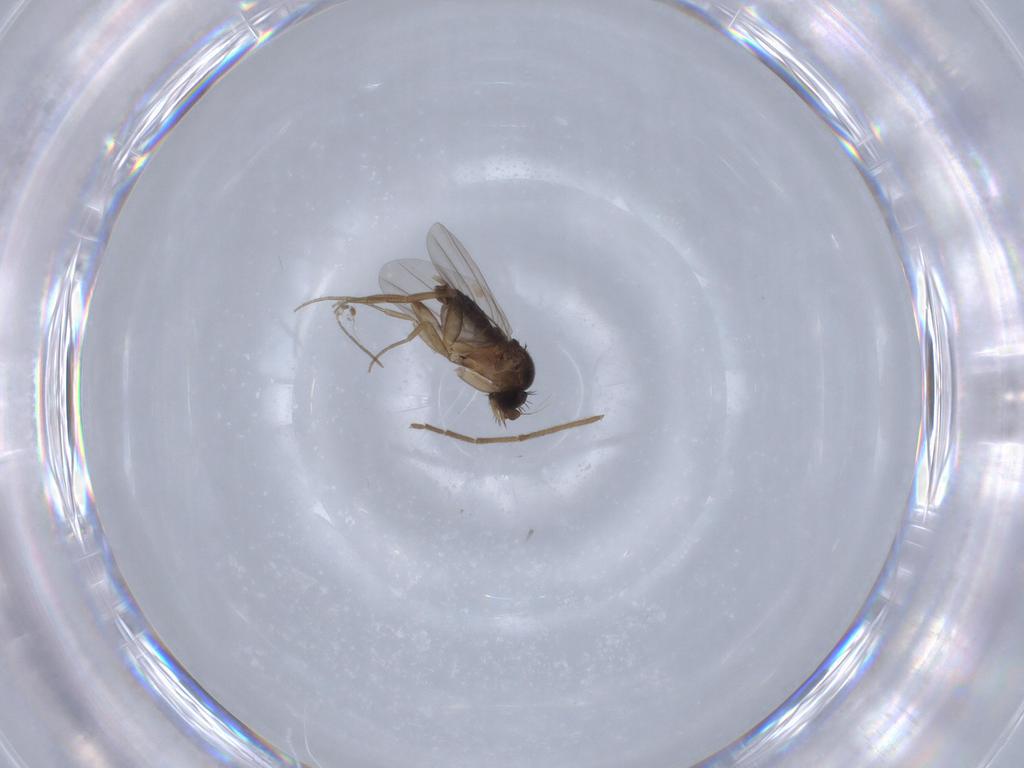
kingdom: Animalia
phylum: Arthropoda
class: Insecta
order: Diptera
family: Phoridae
